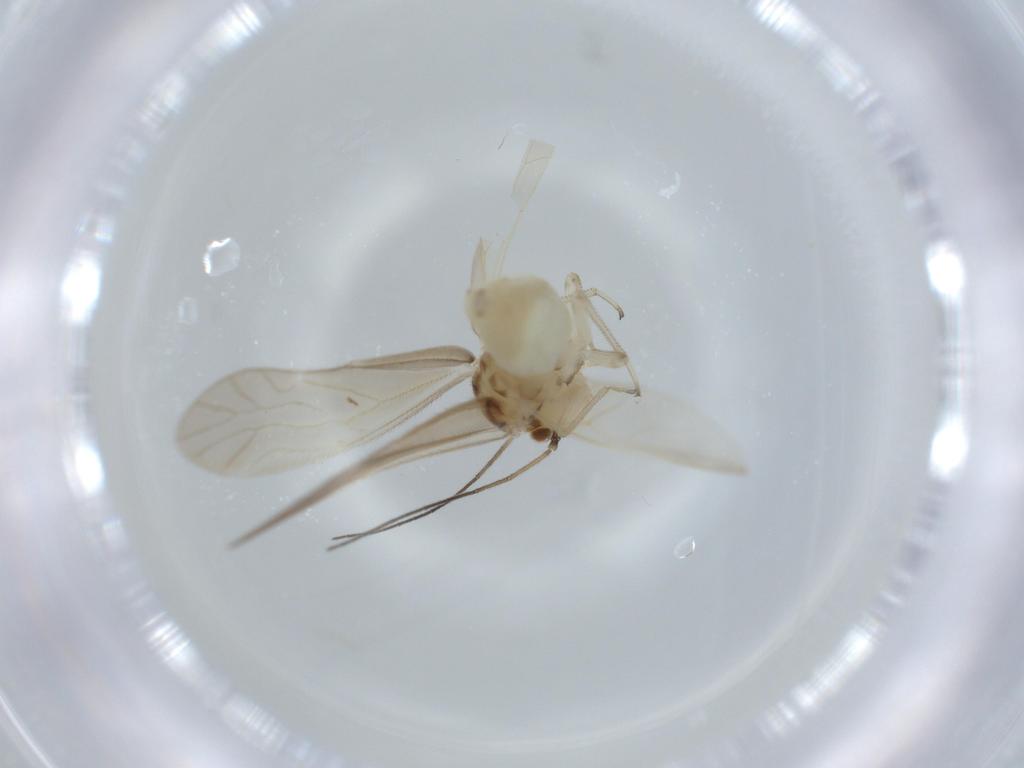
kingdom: Animalia
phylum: Arthropoda
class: Insecta
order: Psocodea
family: Caeciliusidae
